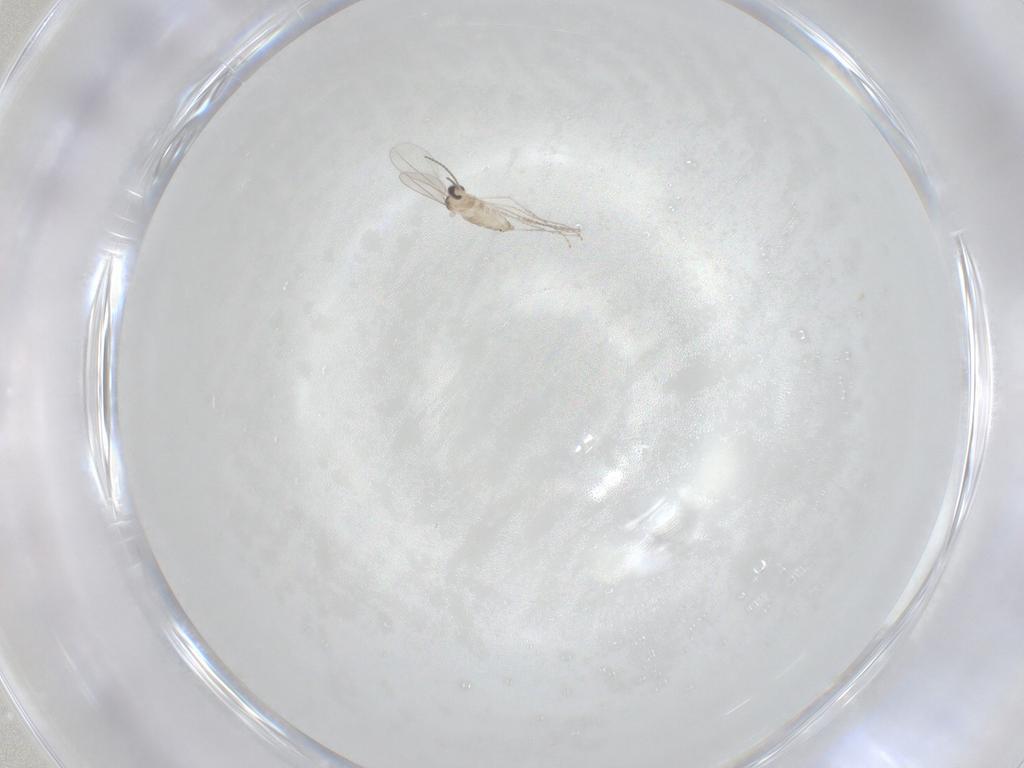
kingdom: Animalia
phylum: Arthropoda
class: Insecta
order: Diptera
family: Cecidomyiidae
